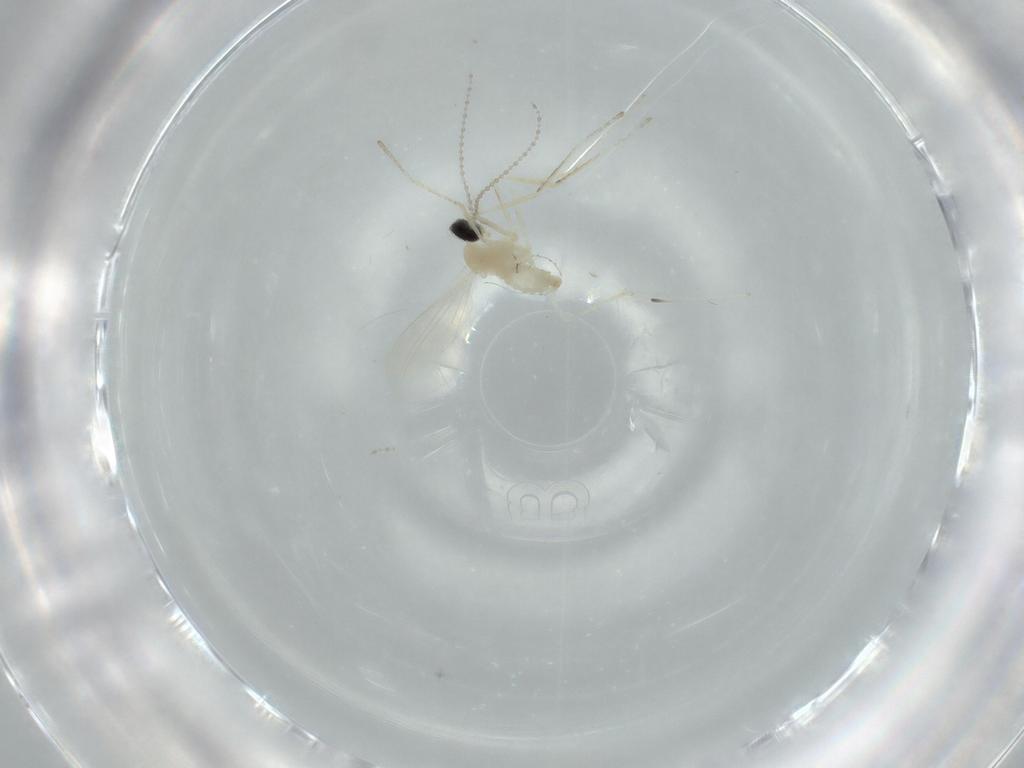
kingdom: Animalia
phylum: Arthropoda
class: Insecta
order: Diptera
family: Cecidomyiidae
